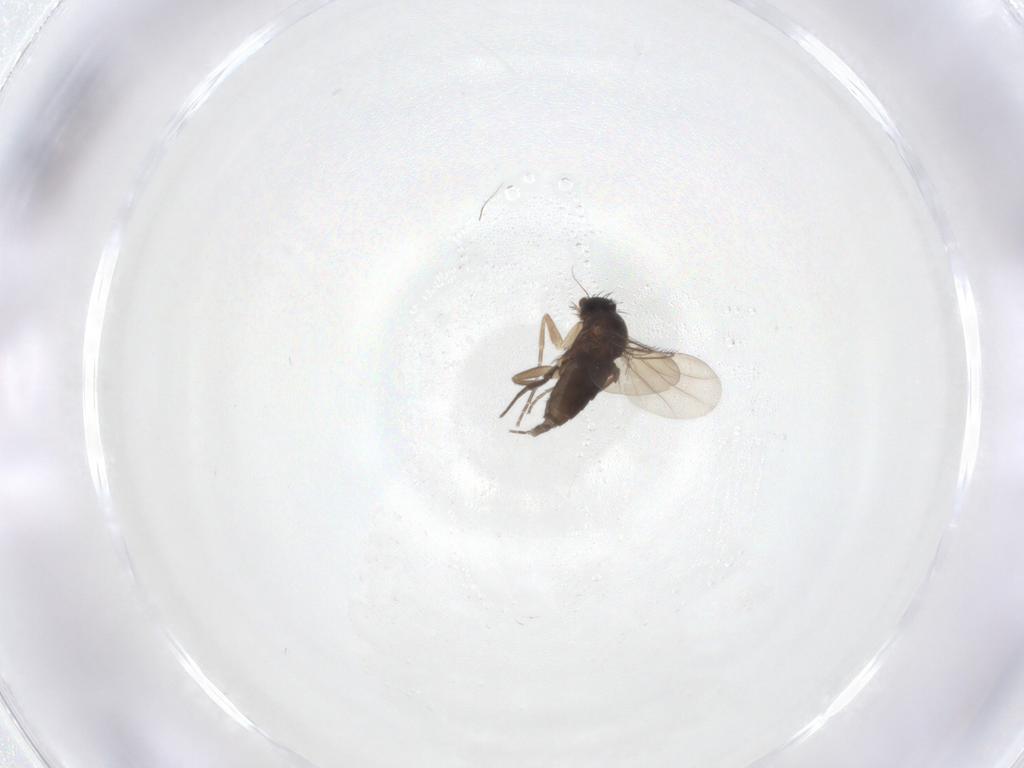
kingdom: Animalia
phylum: Arthropoda
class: Insecta
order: Diptera
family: Phoridae
